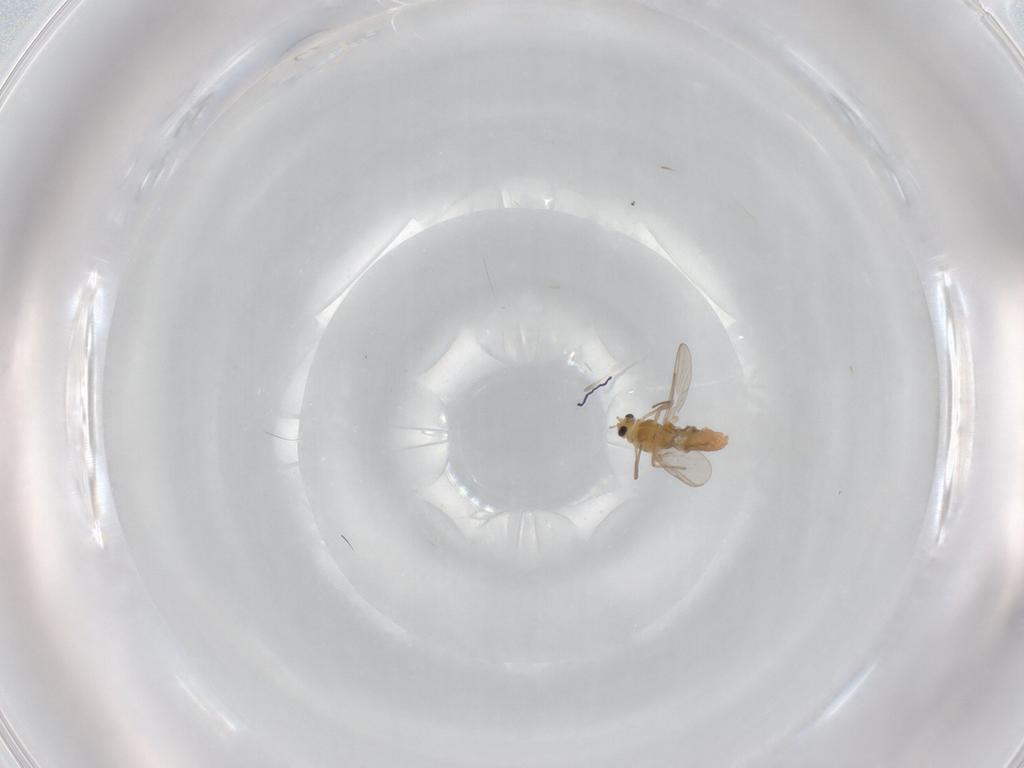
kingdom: Animalia
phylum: Arthropoda
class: Insecta
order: Diptera
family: Chironomidae
